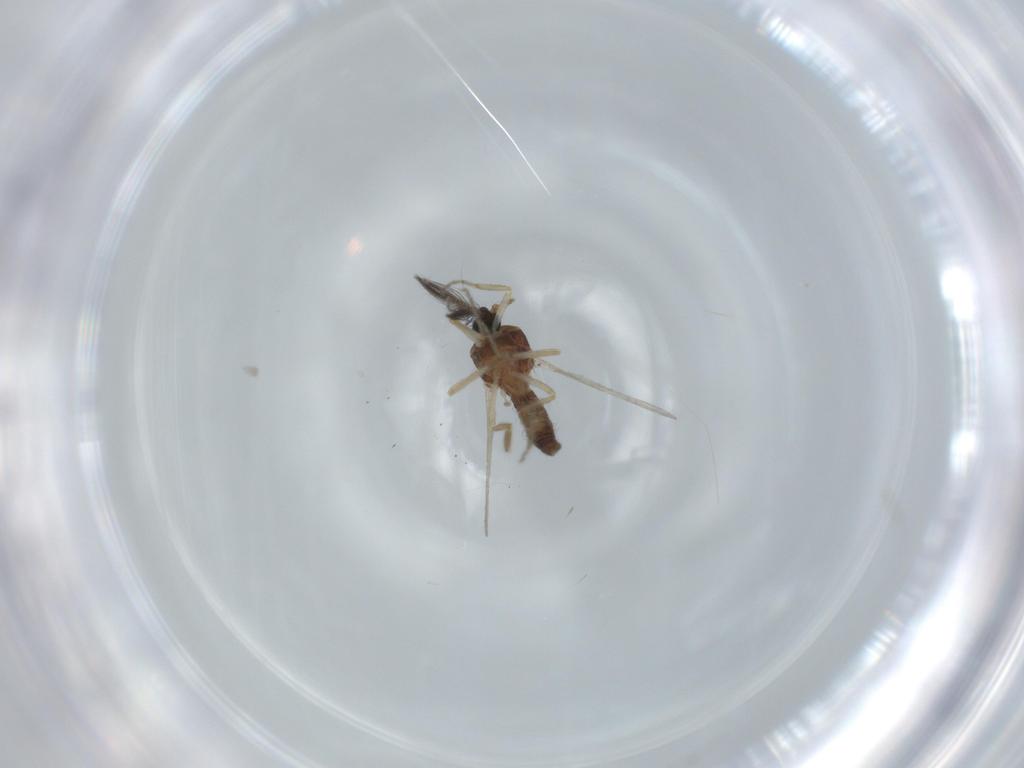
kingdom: Animalia
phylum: Arthropoda
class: Insecta
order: Diptera
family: Ceratopogonidae
